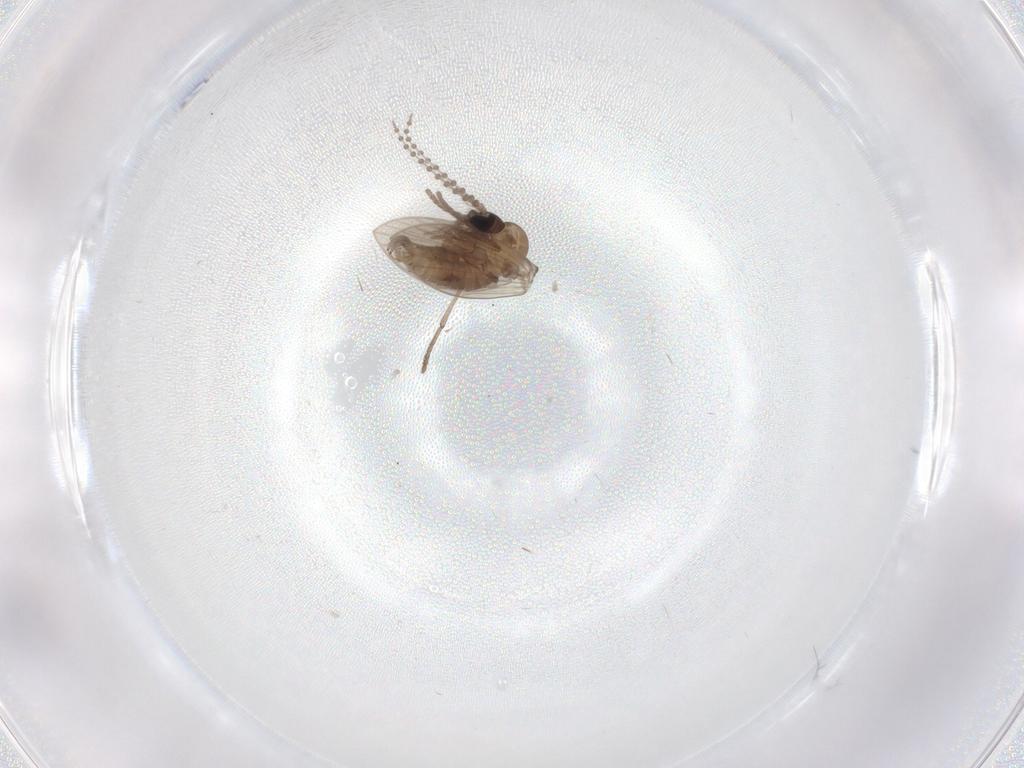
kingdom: Animalia
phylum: Arthropoda
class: Insecta
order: Diptera
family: Psychodidae
